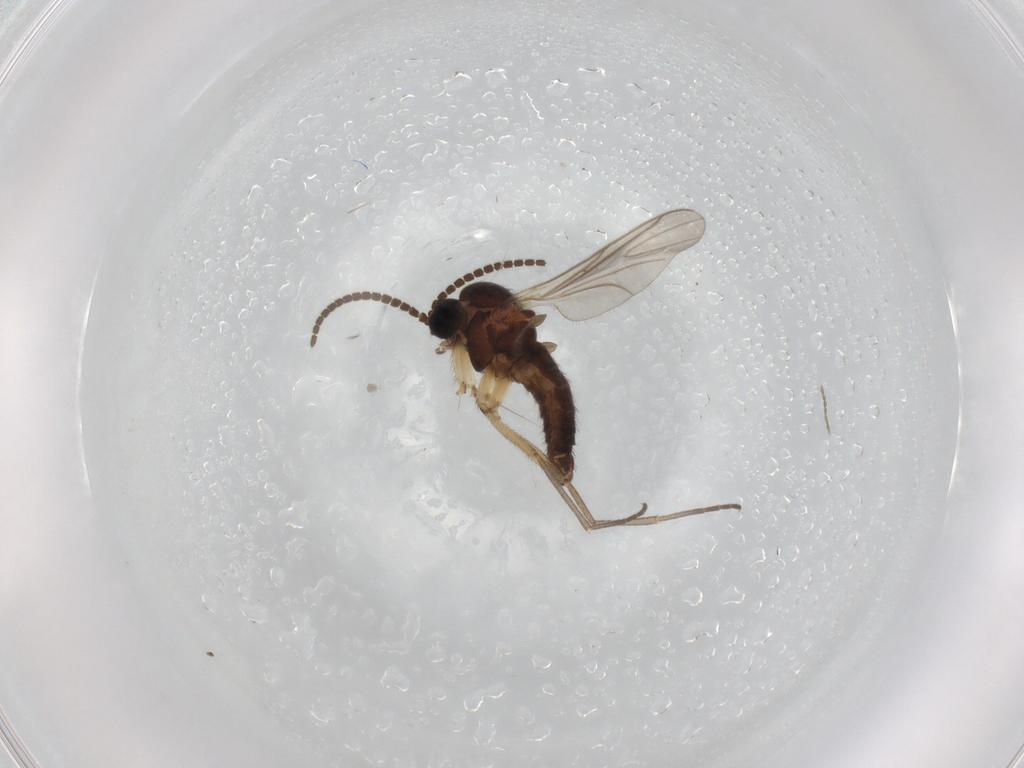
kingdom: Animalia
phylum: Arthropoda
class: Insecta
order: Diptera
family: Sciaridae
